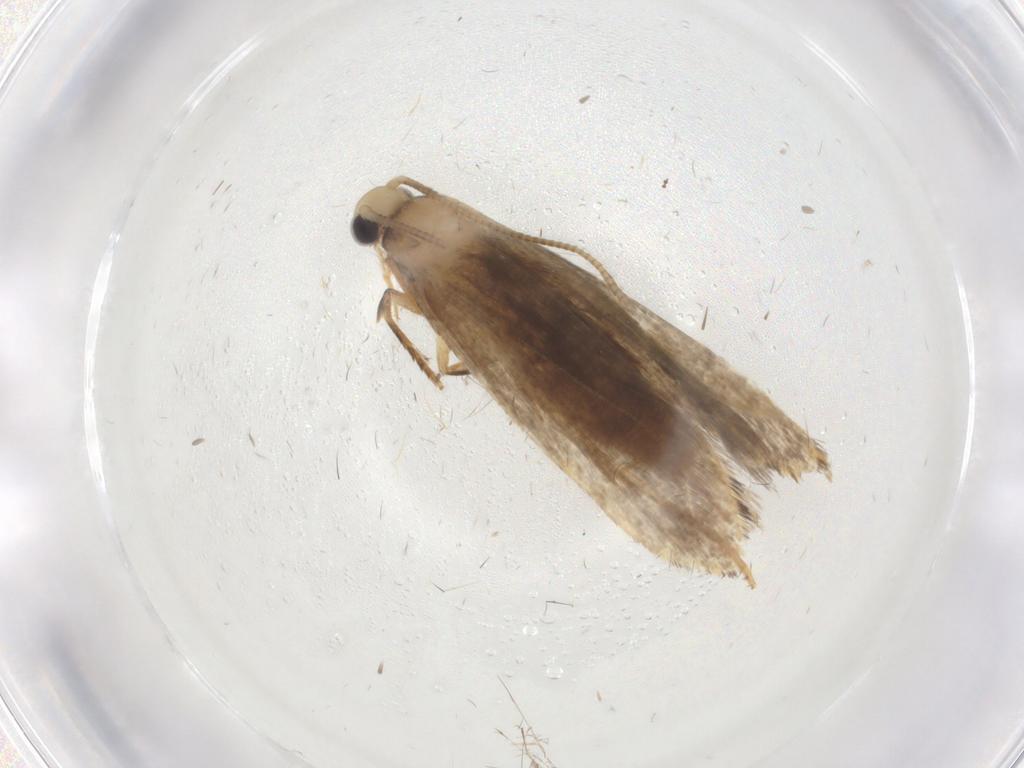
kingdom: Animalia
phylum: Arthropoda
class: Insecta
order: Lepidoptera
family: Tineidae
